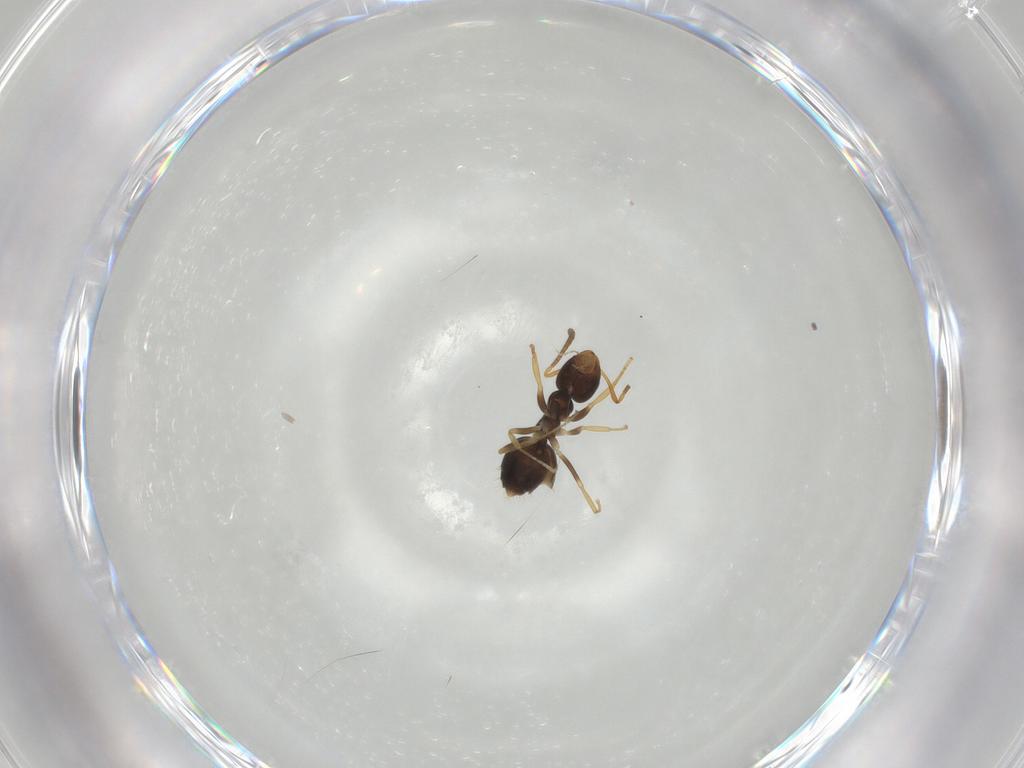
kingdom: Animalia
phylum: Arthropoda
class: Insecta
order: Hymenoptera
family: Formicidae
